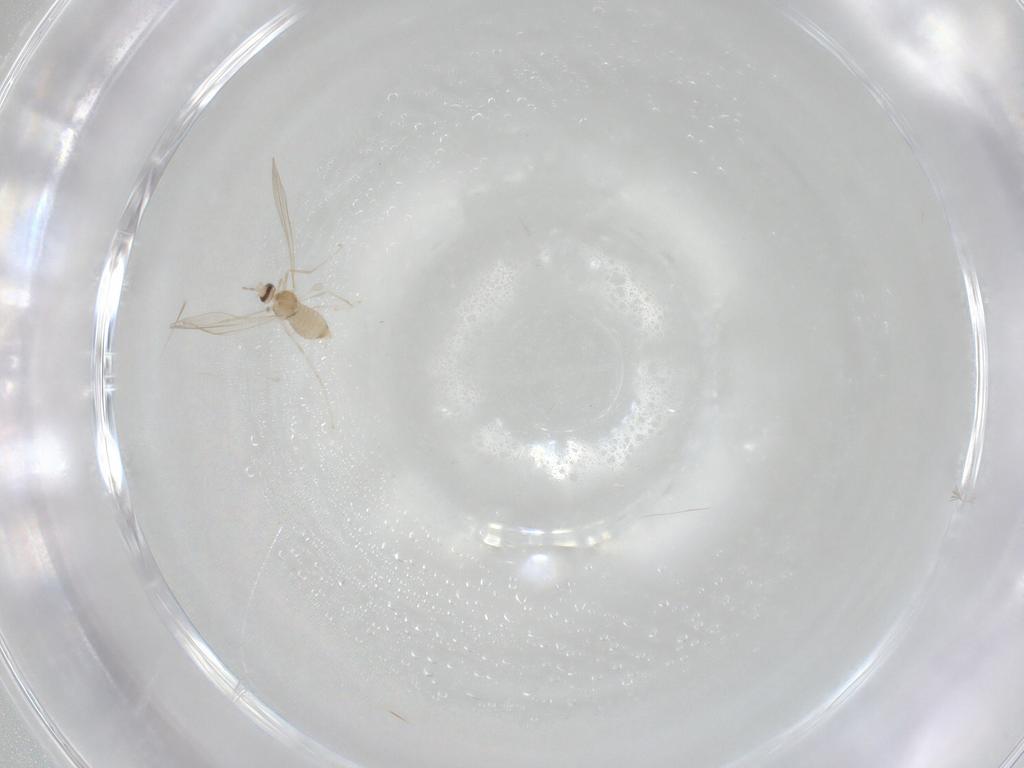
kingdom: Animalia
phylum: Arthropoda
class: Insecta
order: Diptera
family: Cecidomyiidae
